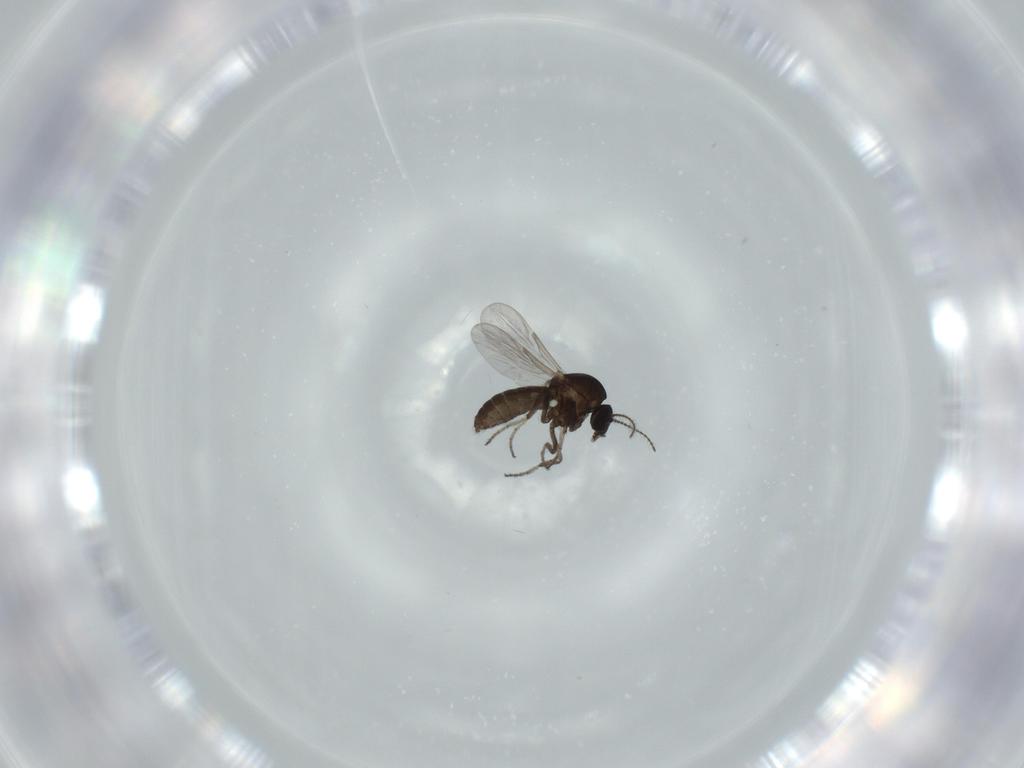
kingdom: Animalia
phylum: Arthropoda
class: Insecta
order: Diptera
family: Ceratopogonidae
